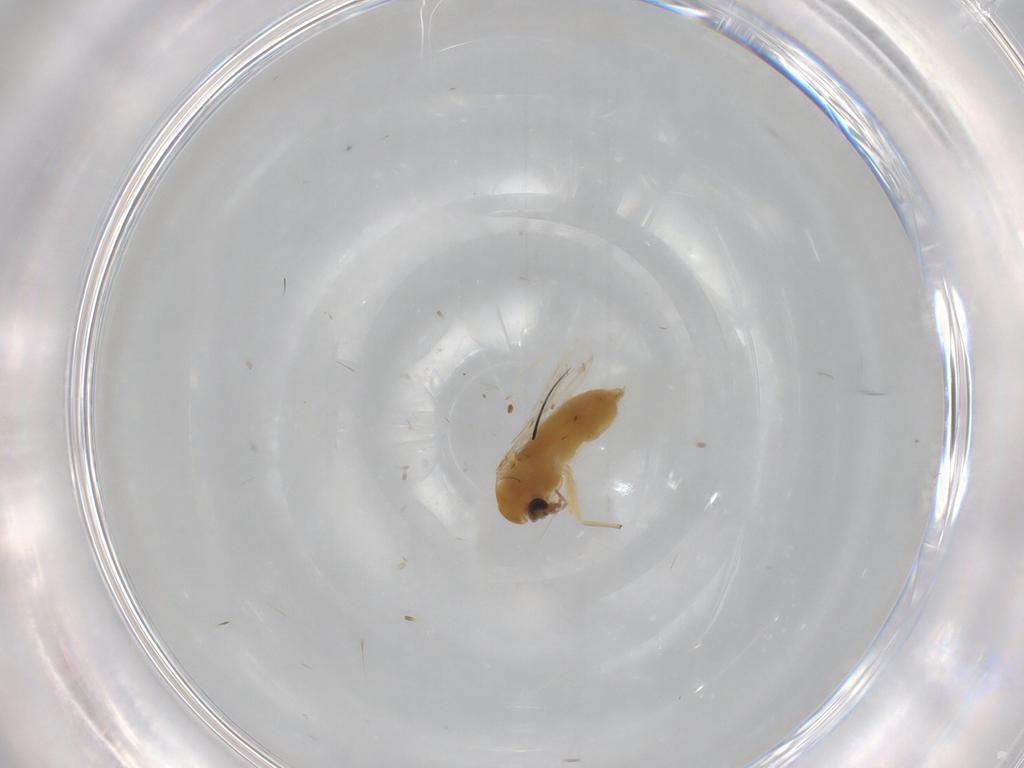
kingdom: Animalia
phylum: Arthropoda
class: Insecta
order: Diptera
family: Chironomidae
